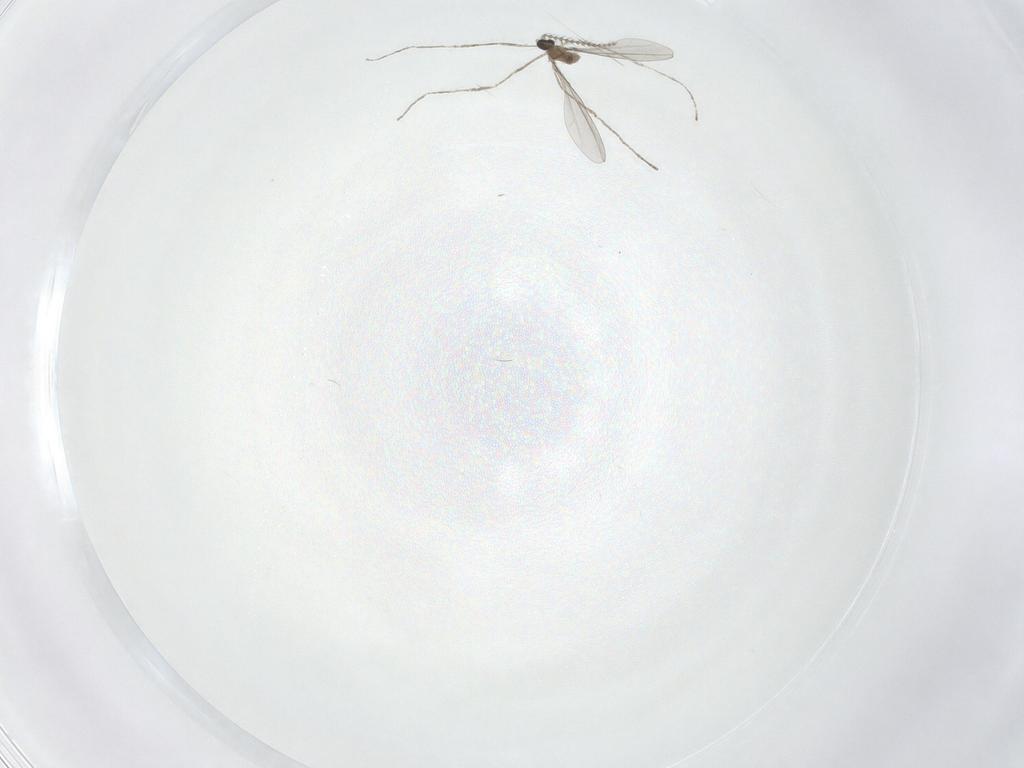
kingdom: Animalia
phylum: Arthropoda
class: Insecta
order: Diptera
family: Cecidomyiidae
